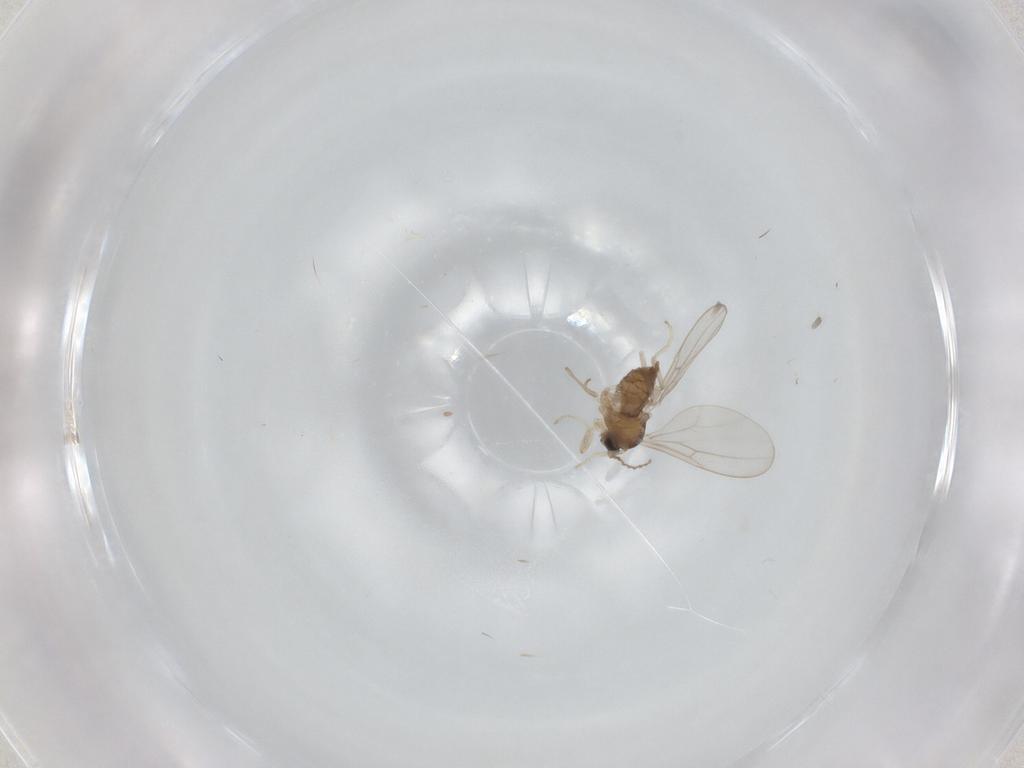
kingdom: Animalia
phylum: Arthropoda
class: Insecta
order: Diptera
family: Cecidomyiidae
